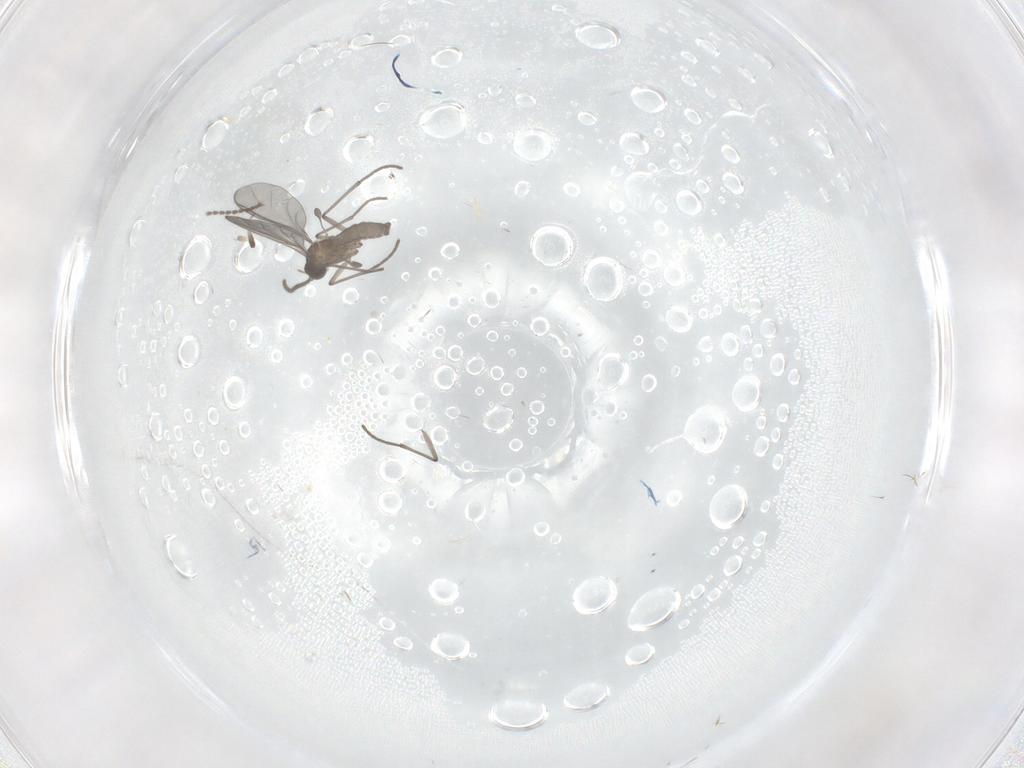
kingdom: Animalia
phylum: Arthropoda
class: Insecta
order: Diptera
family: Sciaridae
